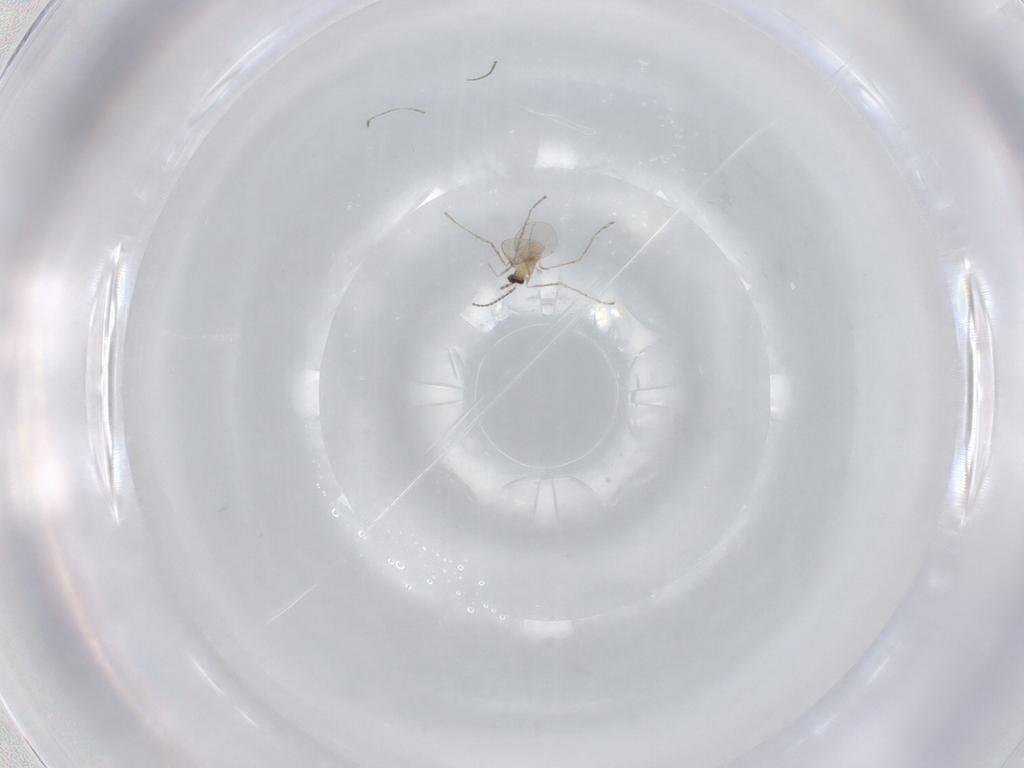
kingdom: Animalia
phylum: Arthropoda
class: Insecta
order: Diptera
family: Cecidomyiidae
